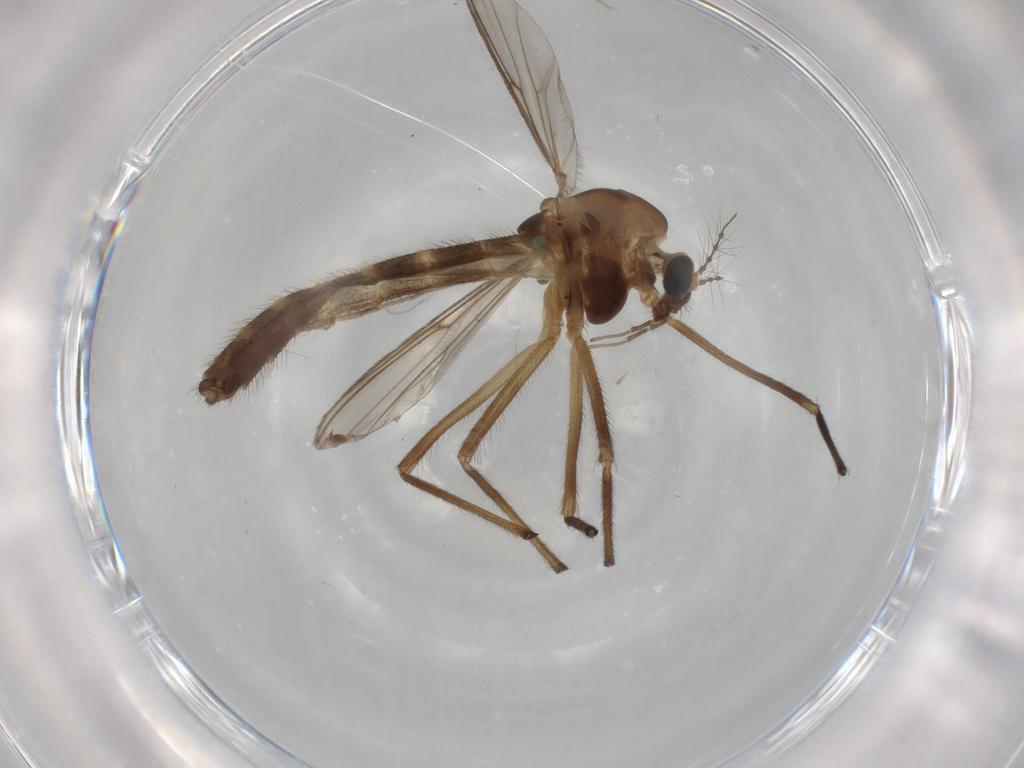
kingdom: Animalia
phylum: Arthropoda
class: Insecta
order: Diptera
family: Chironomidae
